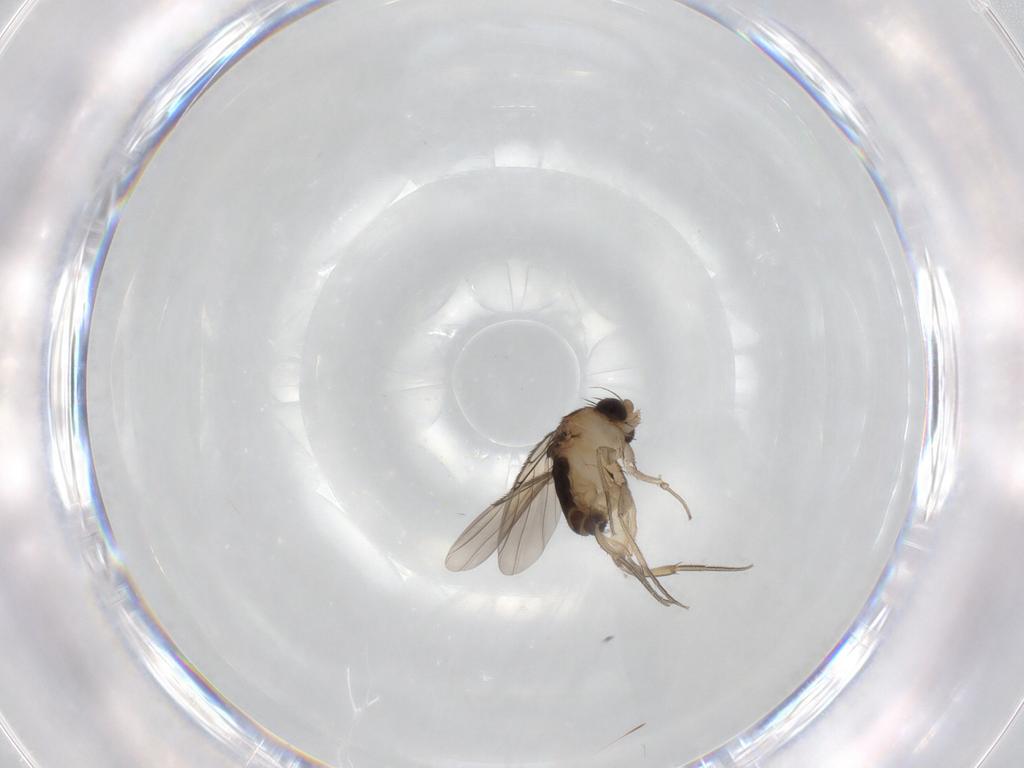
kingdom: Animalia
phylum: Arthropoda
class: Insecta
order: Diptera
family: Phoridae
